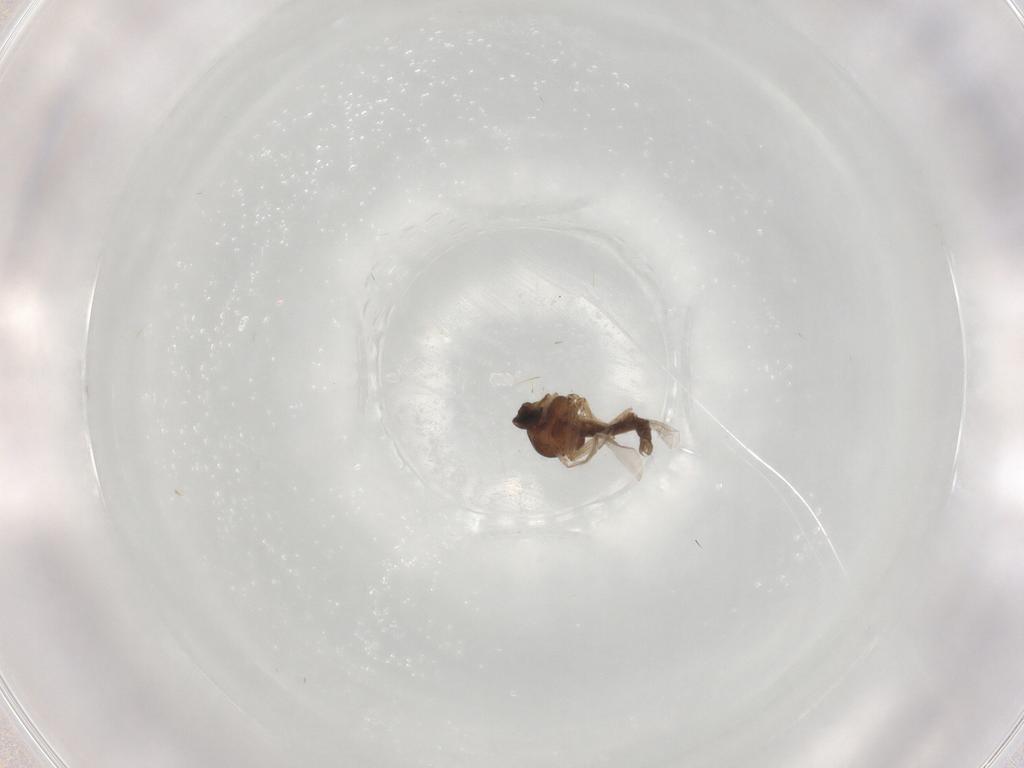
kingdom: Animalia
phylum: Arthropoda
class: Insecta
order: Diptera
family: Ceratopogonidae
